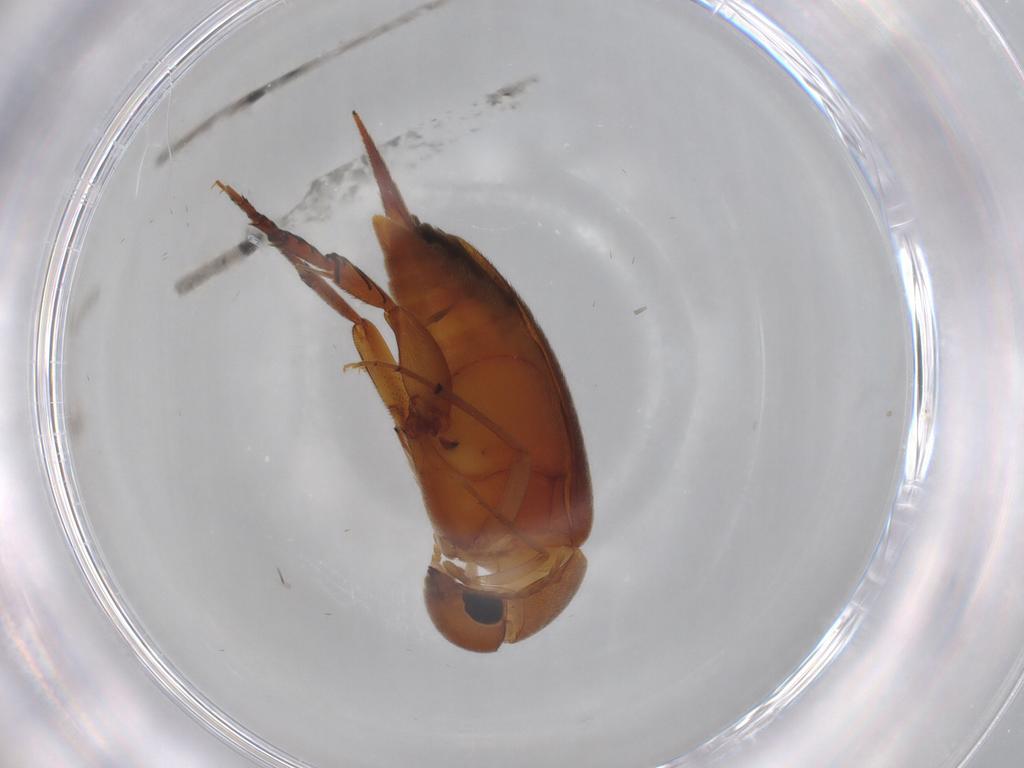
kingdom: Animalia
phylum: Arthropoda
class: Insecta
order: Coleoptera
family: Mordellidae
